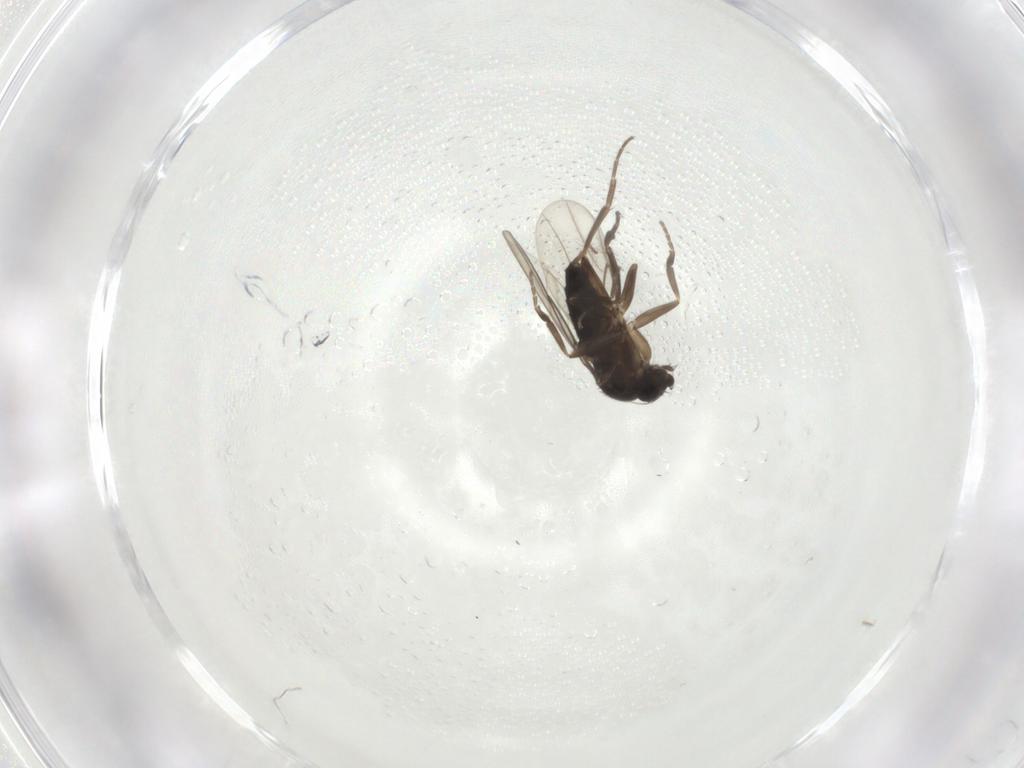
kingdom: Animalia
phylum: Arthropoda
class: Insecta
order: Diptera
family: Phoridae
